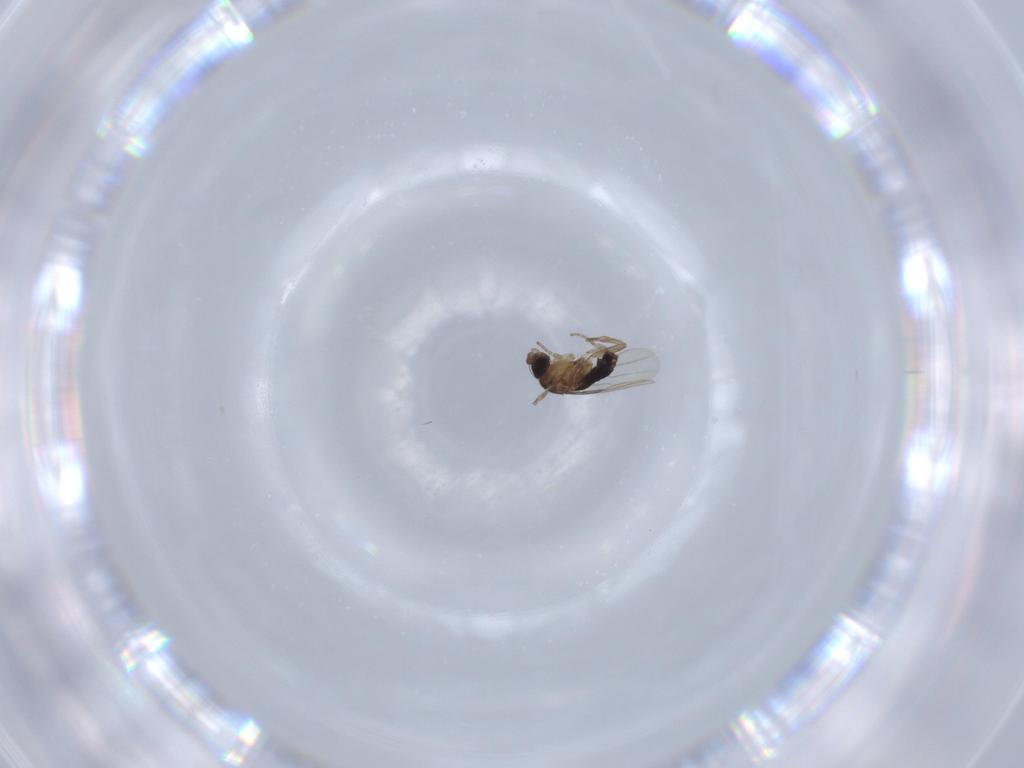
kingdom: Animalia
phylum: Arthropoda
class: Insecta
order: Diptera
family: Phoridae
